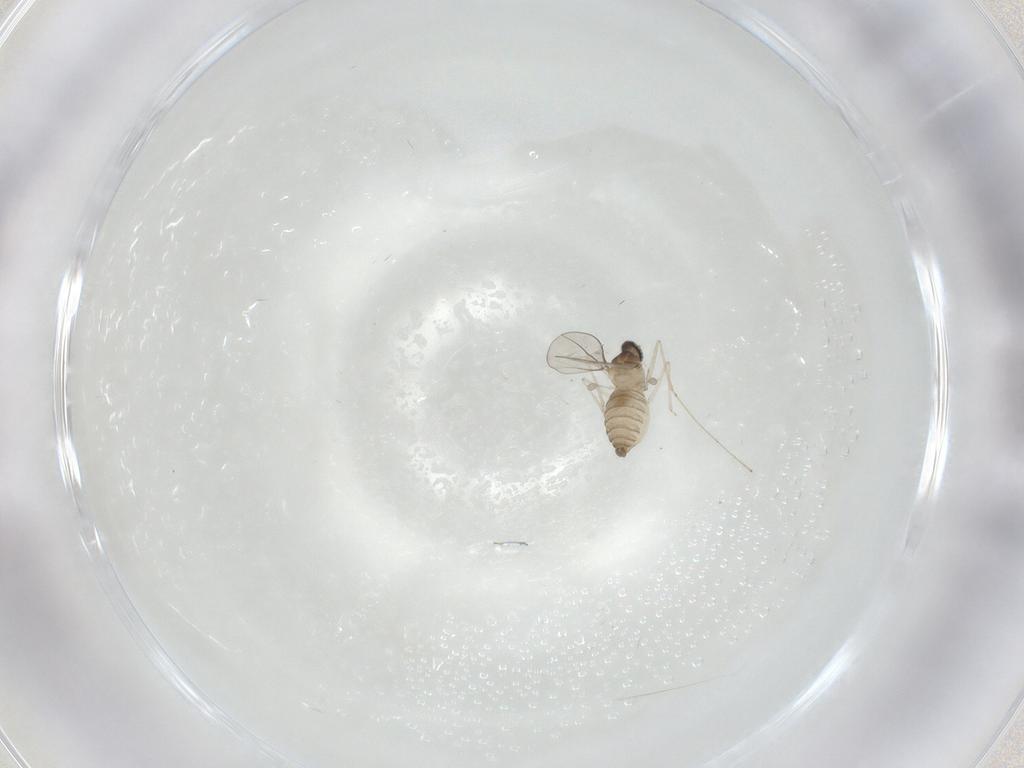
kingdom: Animalia
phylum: Arthropoda
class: Insecta
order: Diptera
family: Cecidomyiidae
